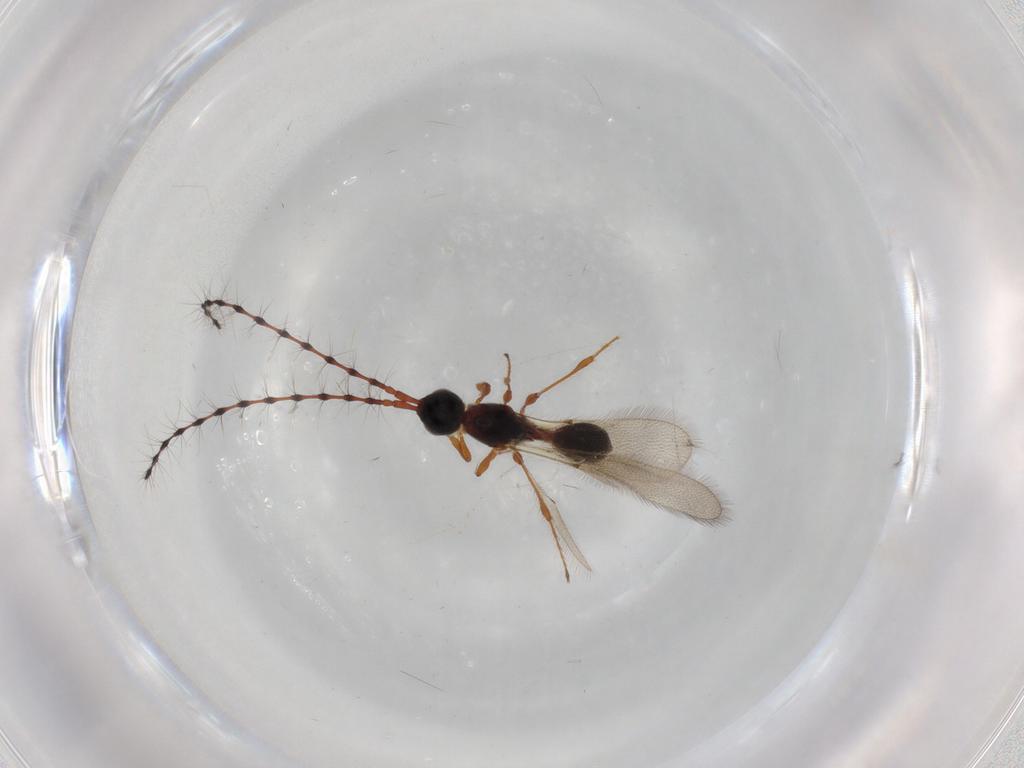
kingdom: Animalia
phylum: Arthropoda
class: Insecta
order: Hymenoptera
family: Diapriidae
